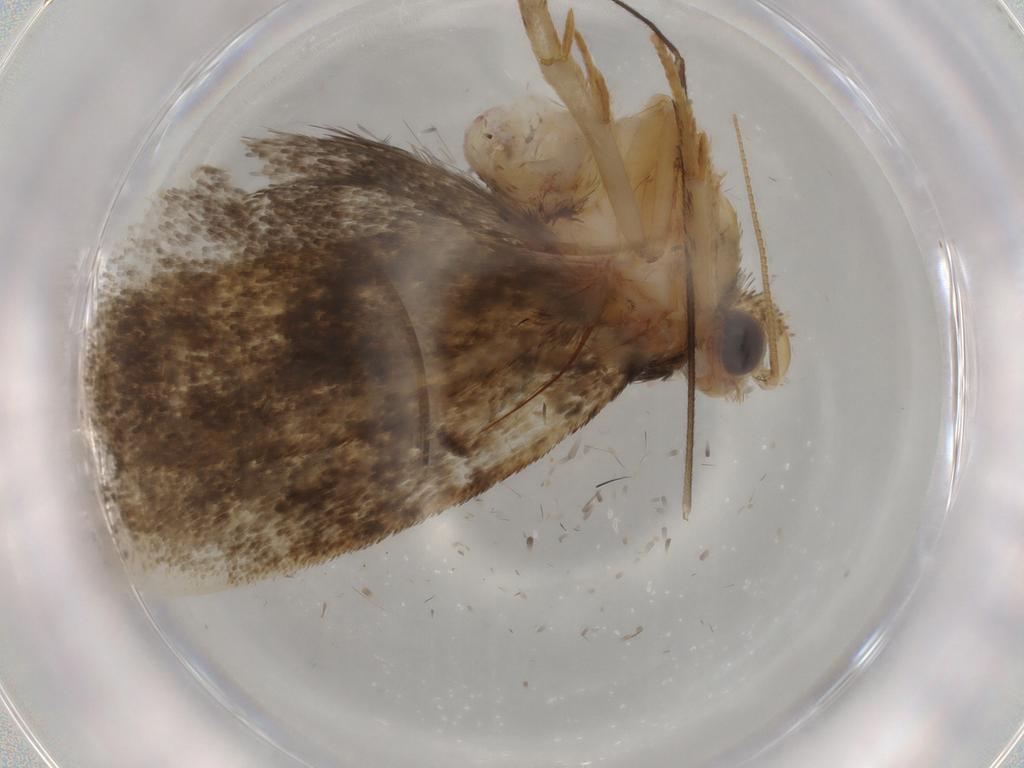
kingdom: Animalia
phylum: Arthropoda
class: Insecta
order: Lepidoptera
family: Tineidae
